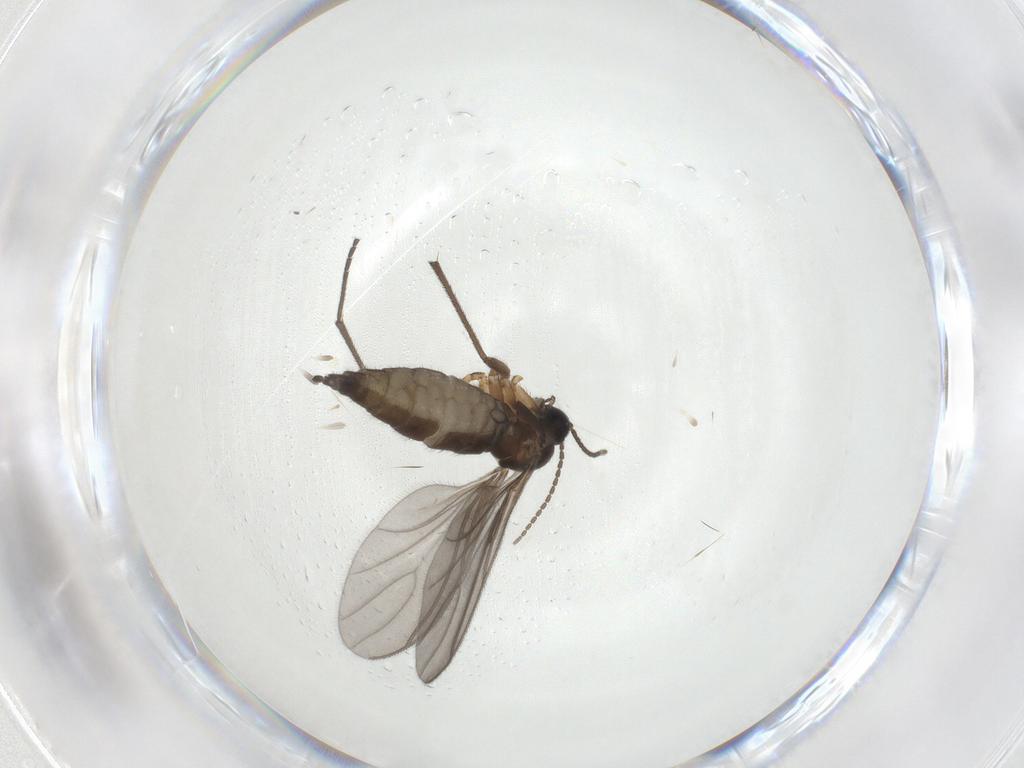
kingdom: Animalia
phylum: Arthropoda
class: Insecta
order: Diptera
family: Sciaridae
